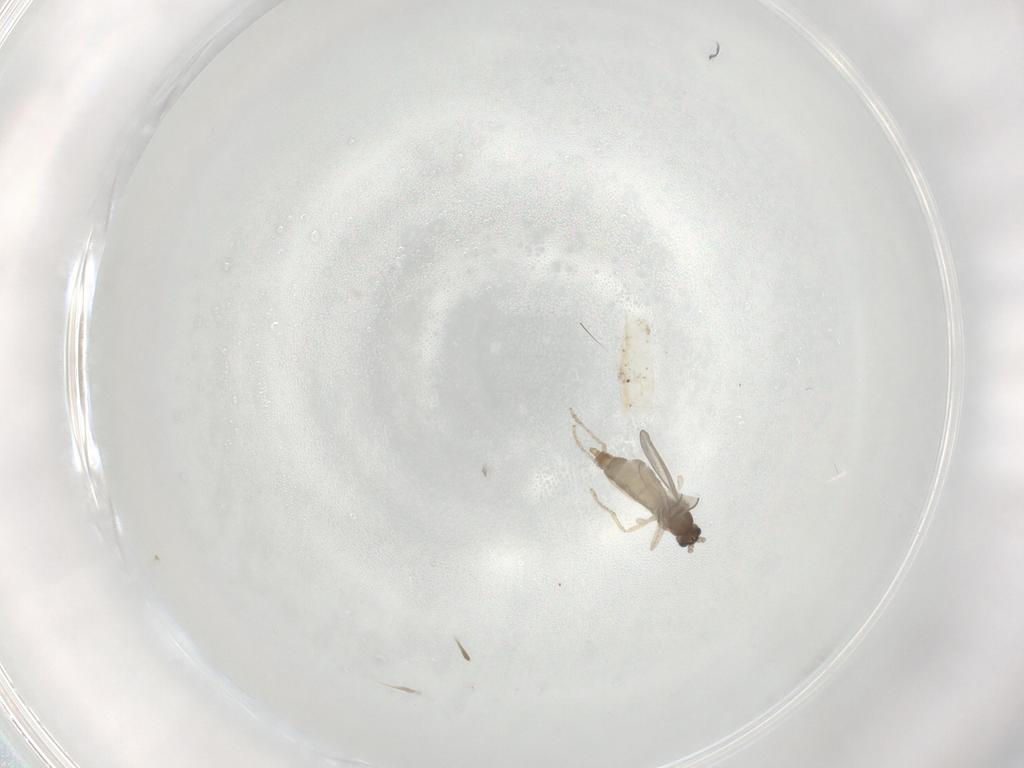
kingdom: Animalia
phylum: Arthropoda
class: Insecta
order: Diptera
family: Cecidomyiidae
